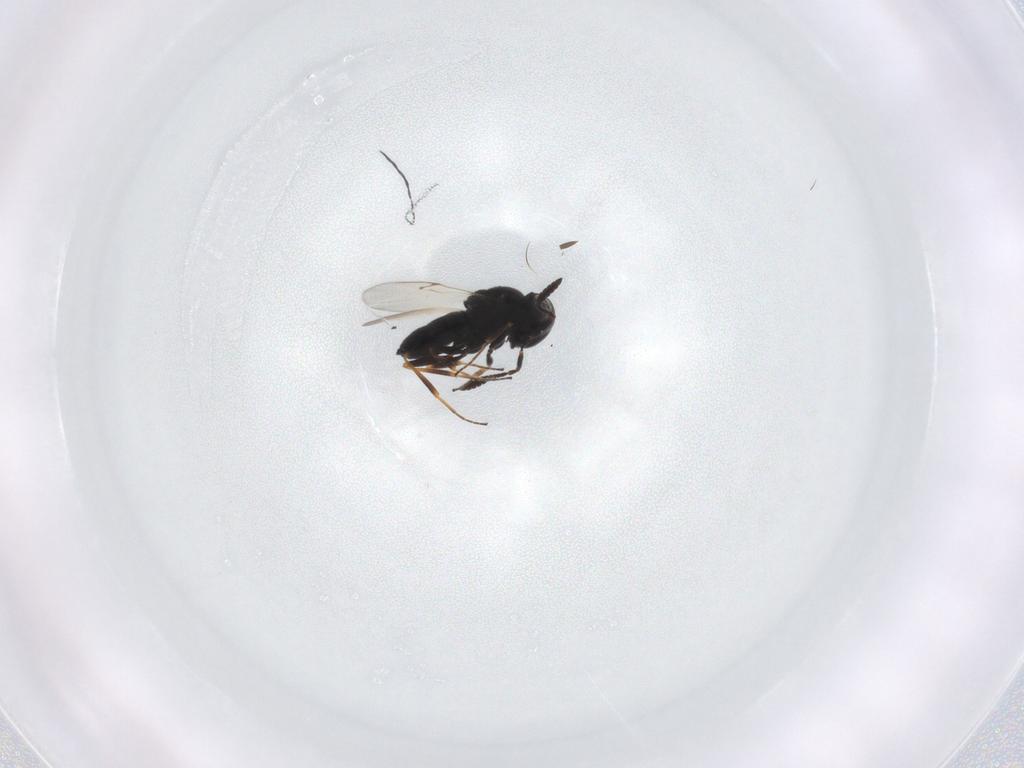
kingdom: Animalia
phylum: Arthropoda
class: Insecta
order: Hymenoptera
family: Scelionidae
